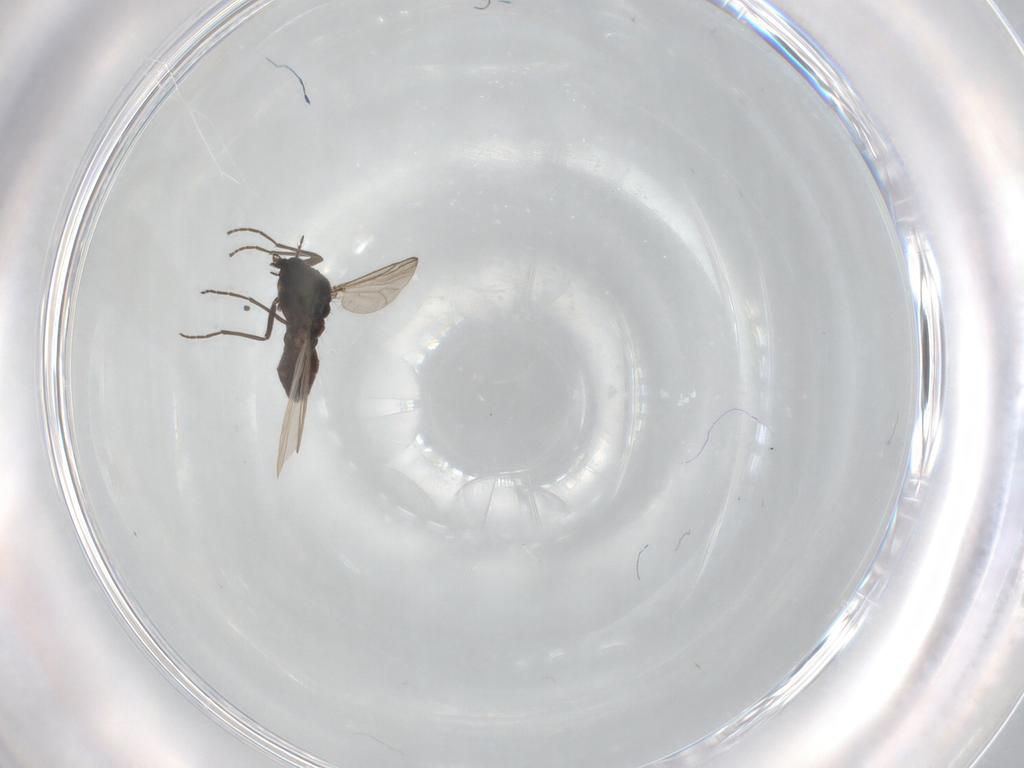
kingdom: Animalia
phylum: Arthropoda
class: Insecta
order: Diptera
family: Chironomidae
